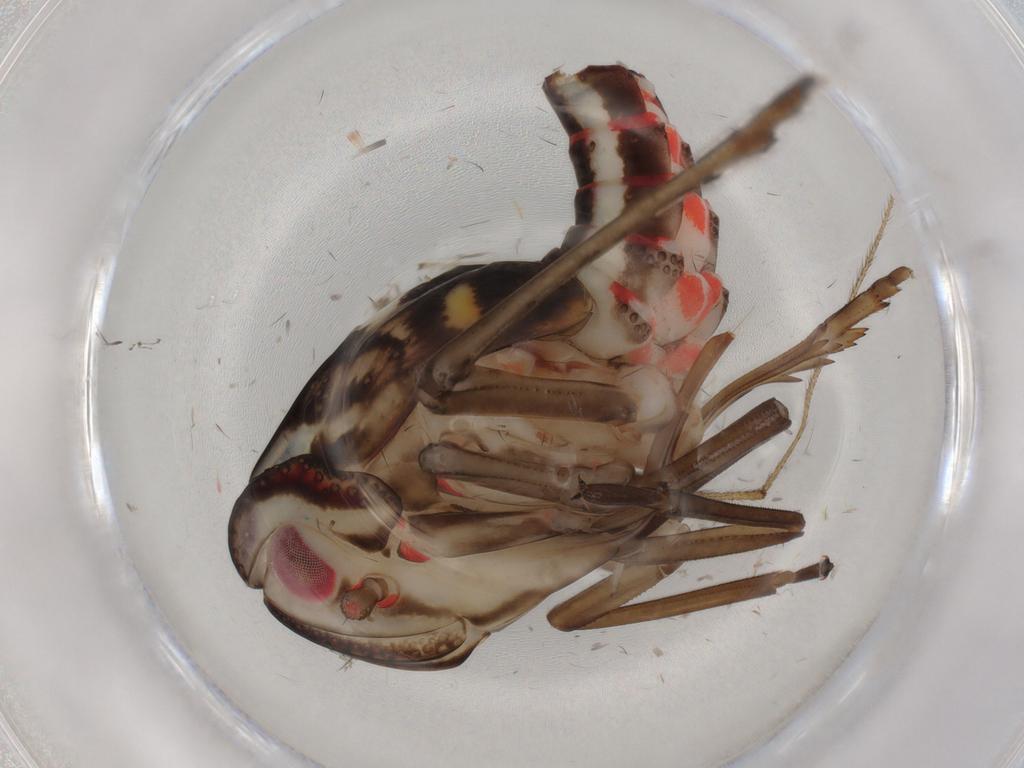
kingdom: Animalia
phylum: Arthropoda
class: Insecta
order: Hemiptera
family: Nogodinidae
